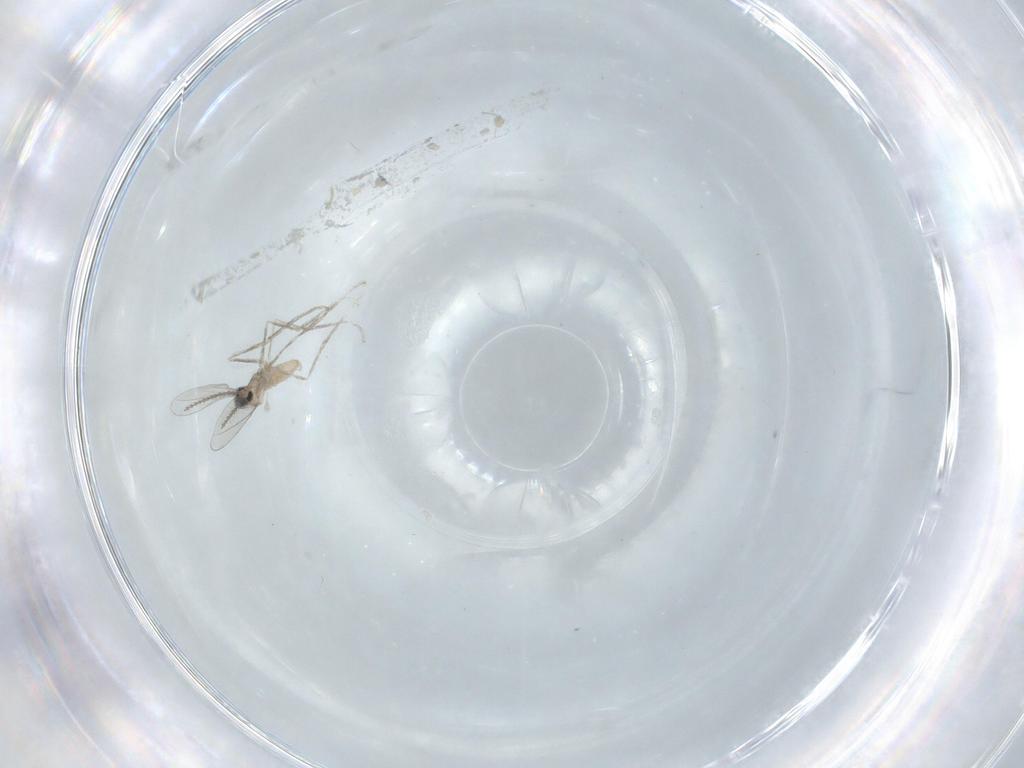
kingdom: Animalia
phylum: Arthropoda
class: Insecta
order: Diptera
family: Cecidomyiidae
